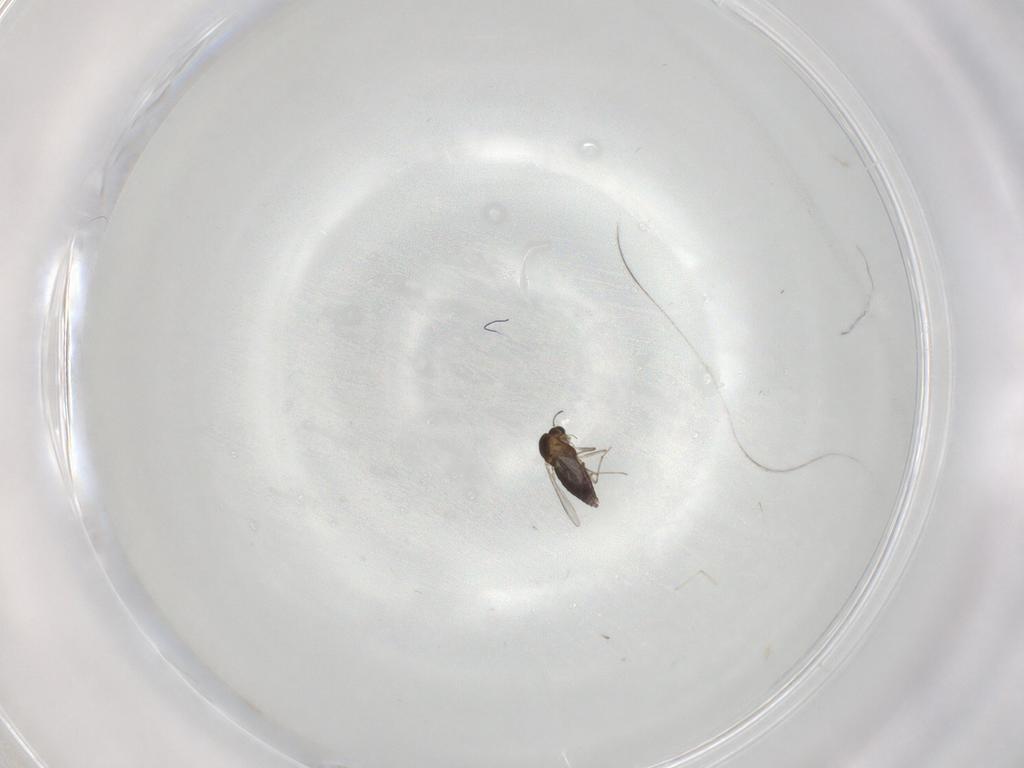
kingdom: Animalia
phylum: Arthropoda
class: Insecta
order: Diptera
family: Chironomidae
